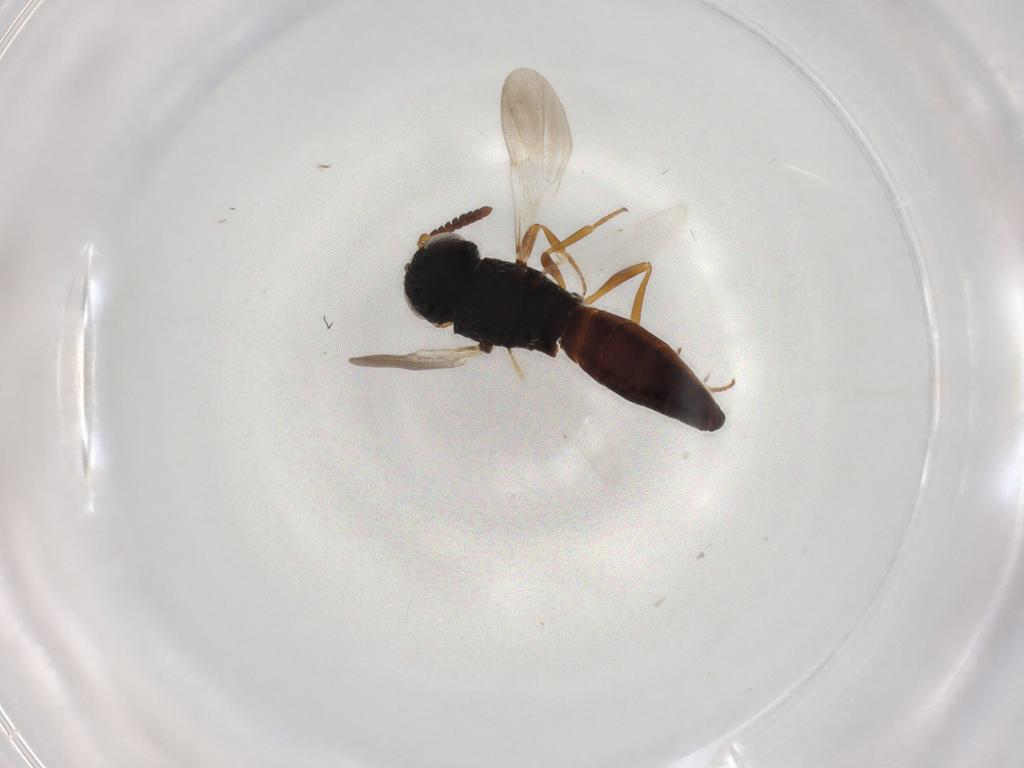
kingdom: Animalia
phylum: Arthropoda
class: Insecta
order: Hymenoptera
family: Scelionidae
